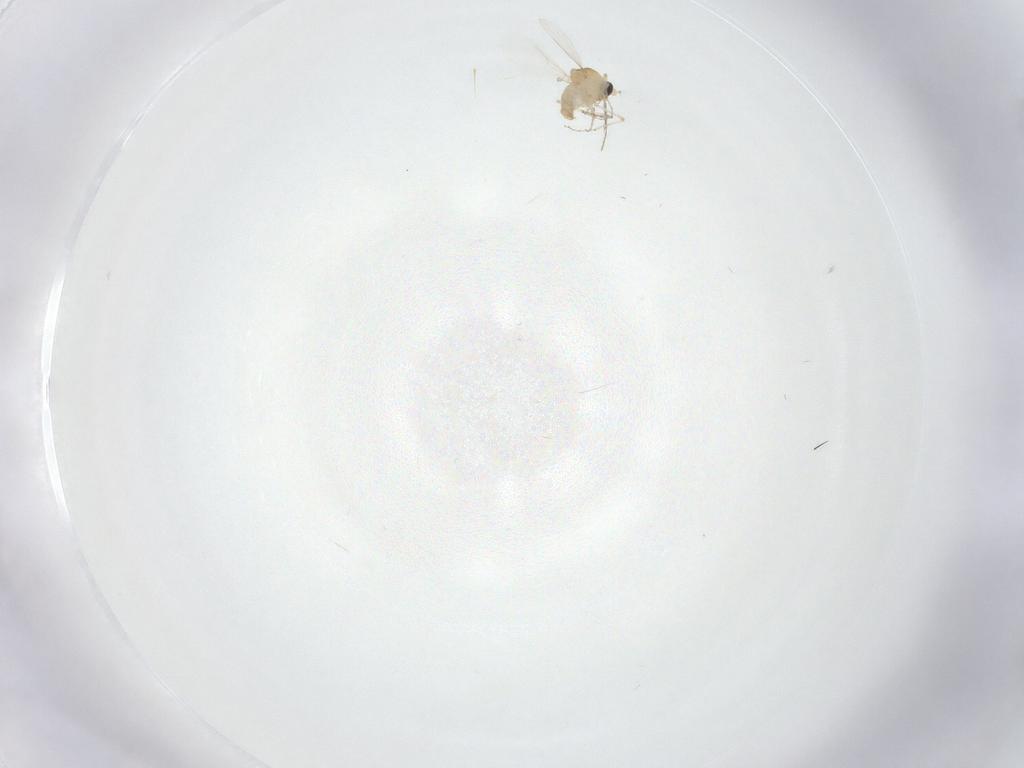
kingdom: Animalia
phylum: Arthropoda
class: Insecta
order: Diptera
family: Ceratopogonidae
